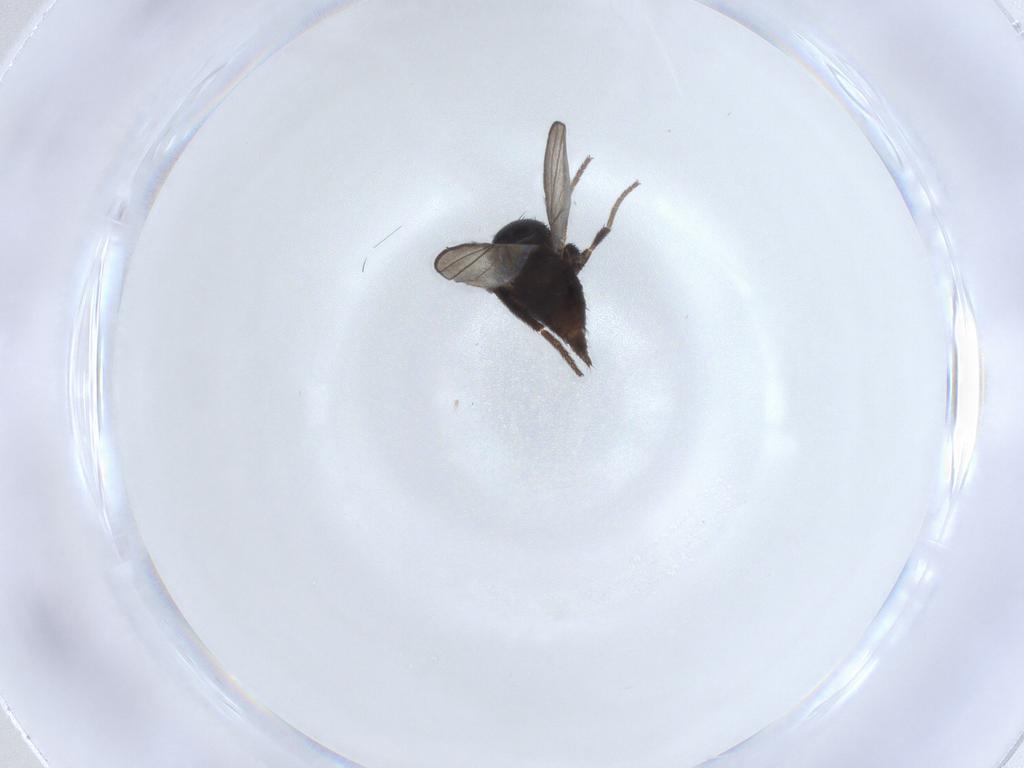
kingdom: Animalia
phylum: Arthropoda
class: Insecta
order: Diptera
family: Milichiidae
